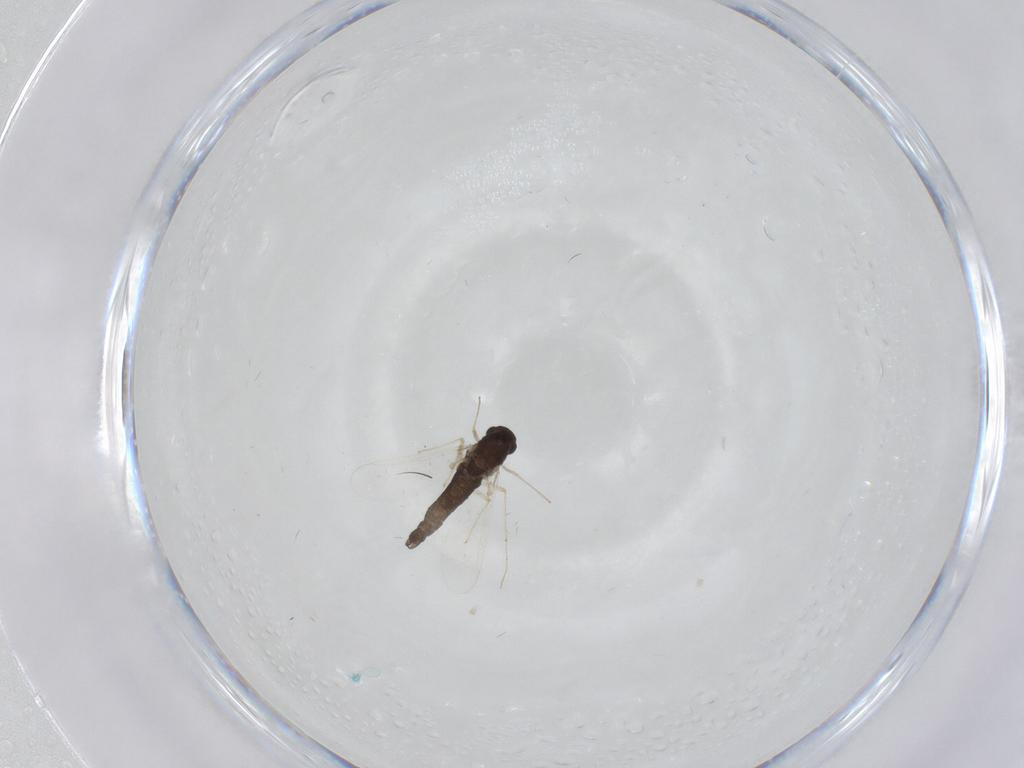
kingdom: Animalia
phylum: Arthropoda
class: Insecta
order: Diptera
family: Chironomidae
